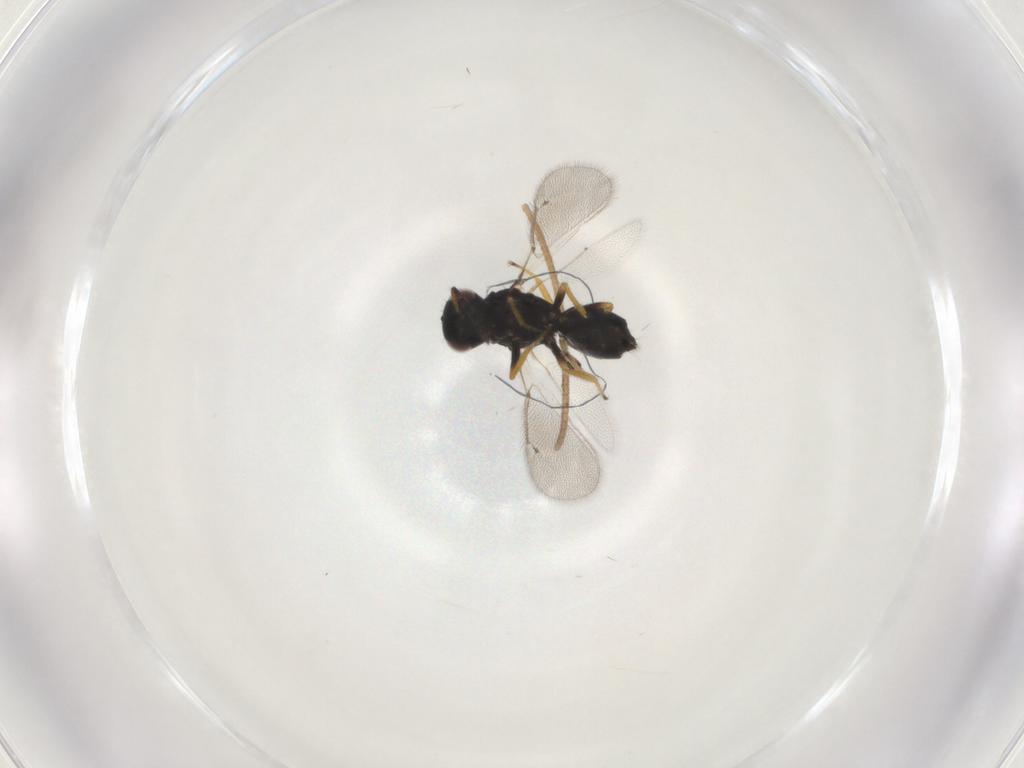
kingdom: Animalia
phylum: Arthropoda
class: Insecta
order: Hymenoptera
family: Eulophidae
